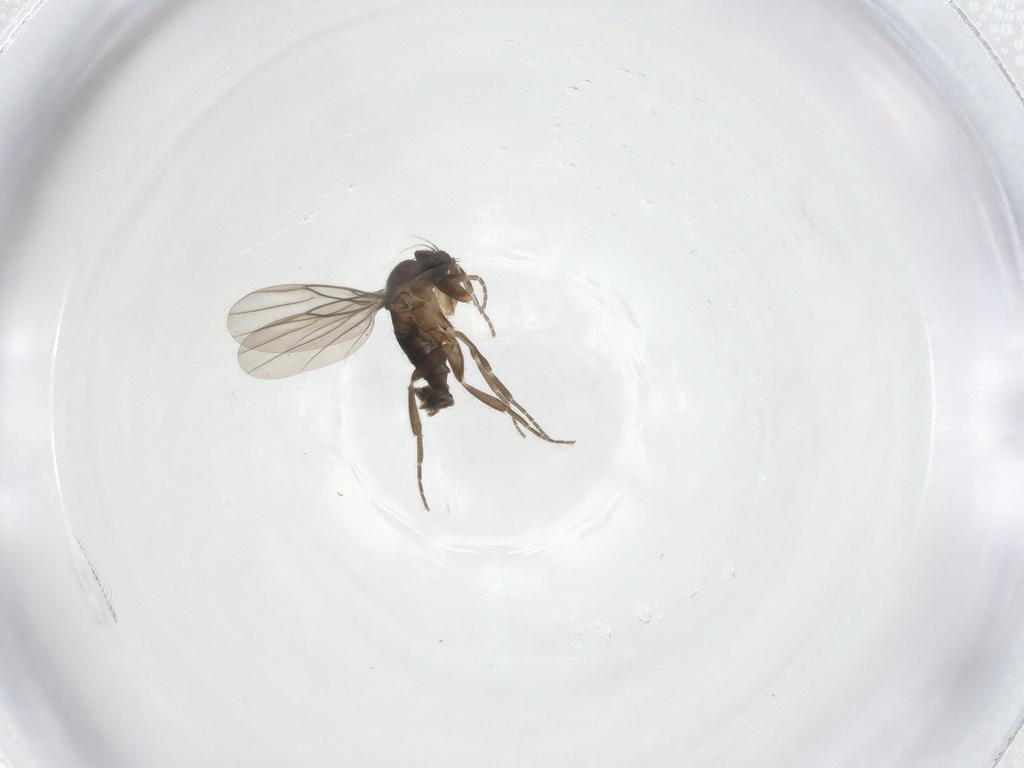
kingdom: Animalia
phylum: Arthropoda
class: Insecta
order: Diptera
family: Ceratopogonidae
